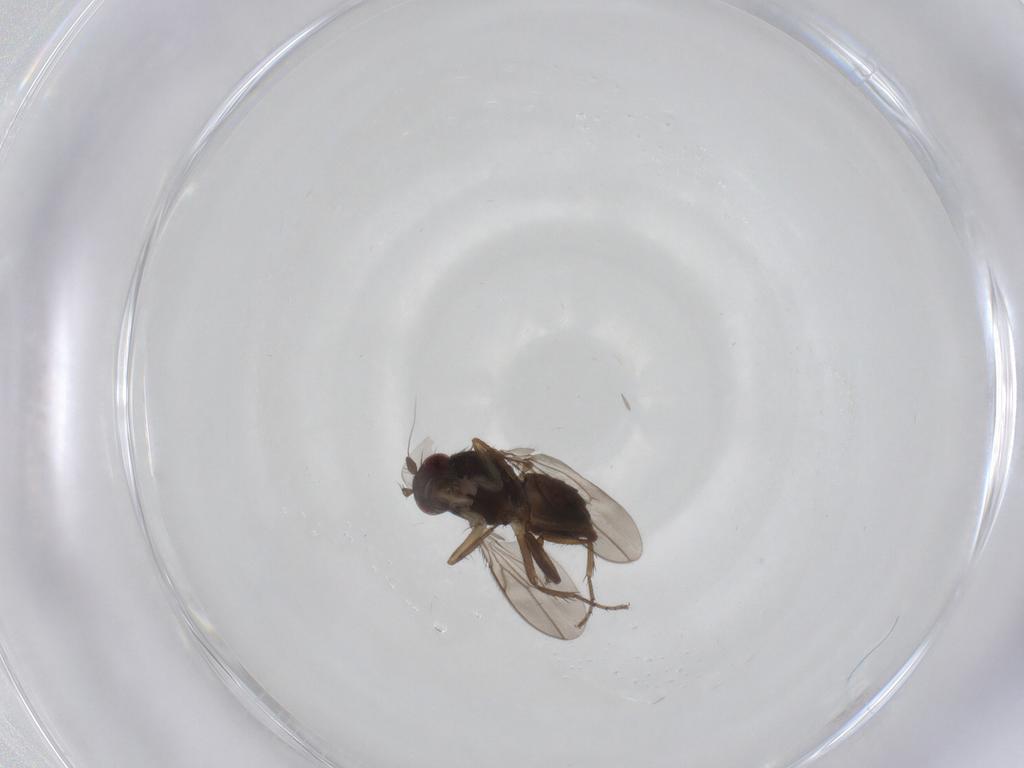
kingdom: Animalia
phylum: Arthropoda
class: Insecta
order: Diptera
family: Sphaeroceridae
